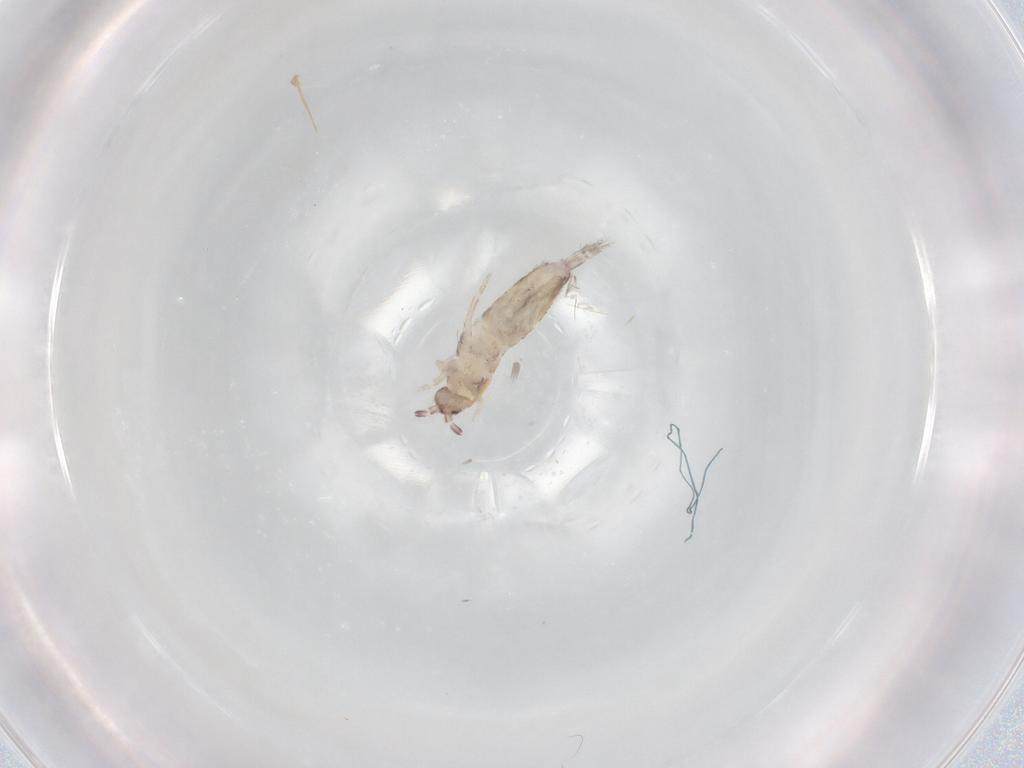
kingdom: Animalia
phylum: Arthropoda
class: Collembola
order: Entomobryomorpha
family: Entomobryidae
